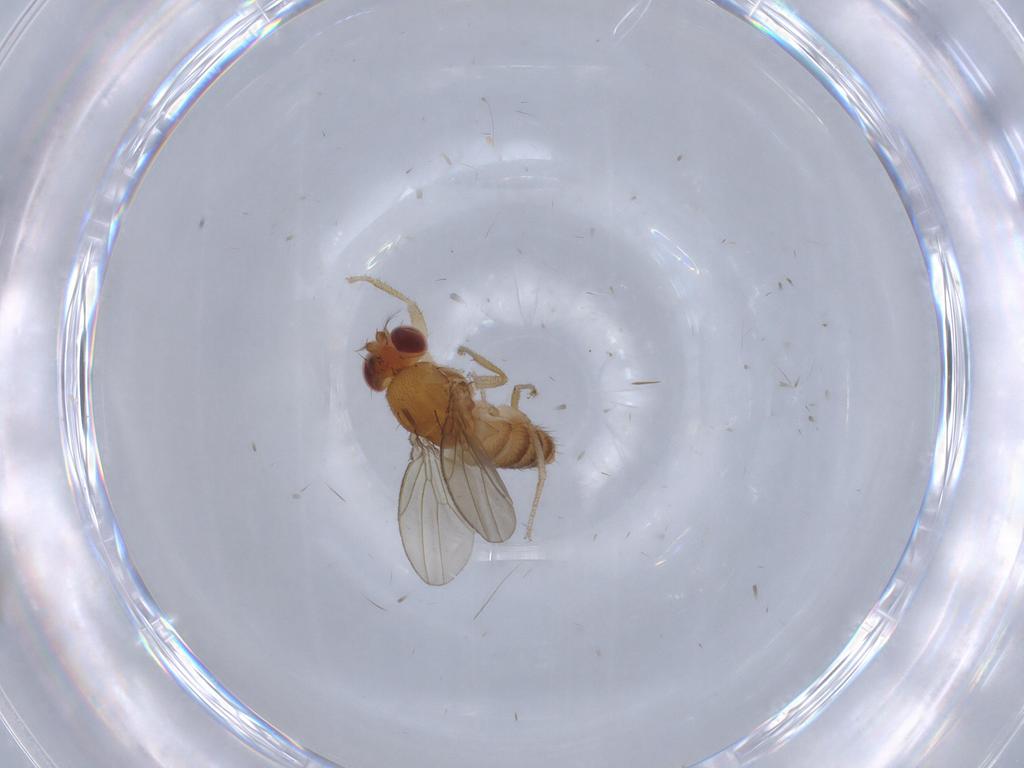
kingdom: Animalia
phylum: Arthropoda
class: Insecta
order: Diptera
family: Drosophilidae
